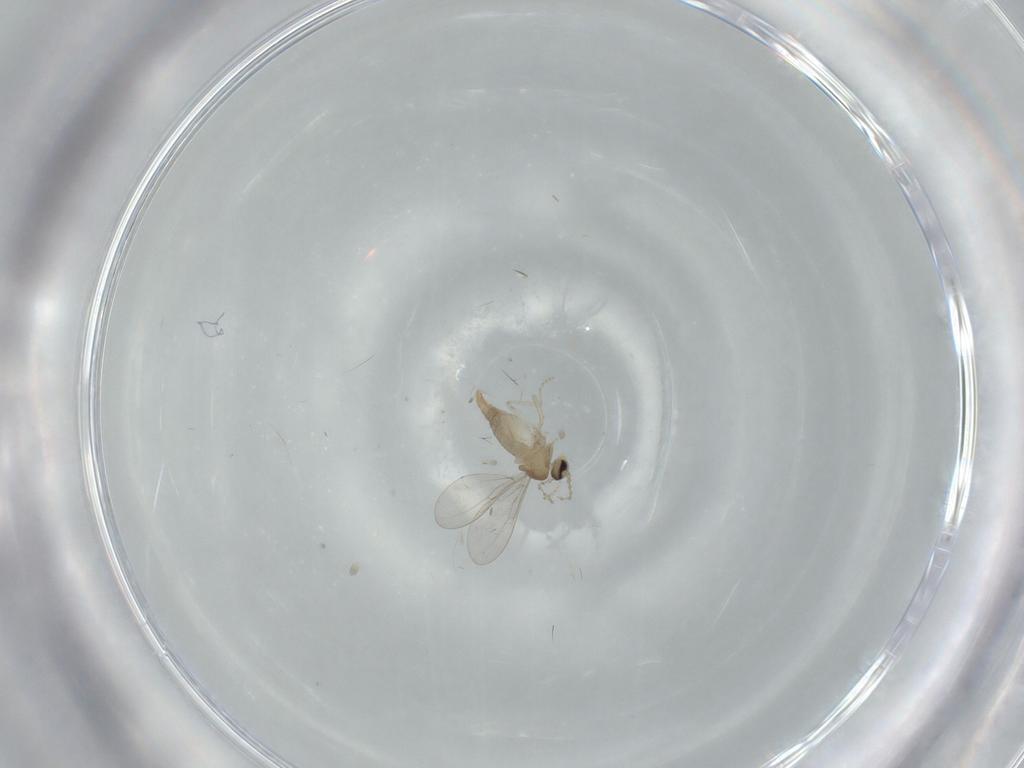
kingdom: Animalia
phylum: Arthropoda
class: Insecta
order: Diptera
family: Cecidomyiidae
